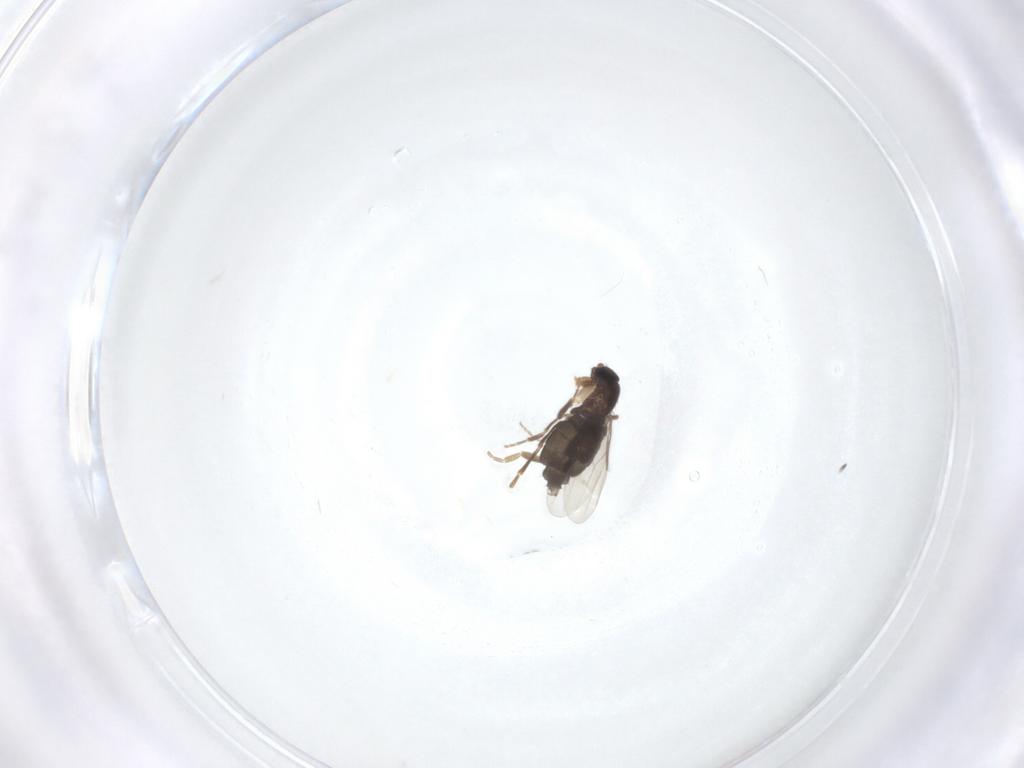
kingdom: Animalia
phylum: Arthropoda
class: Insecta
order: Diptera
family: Phoridae
